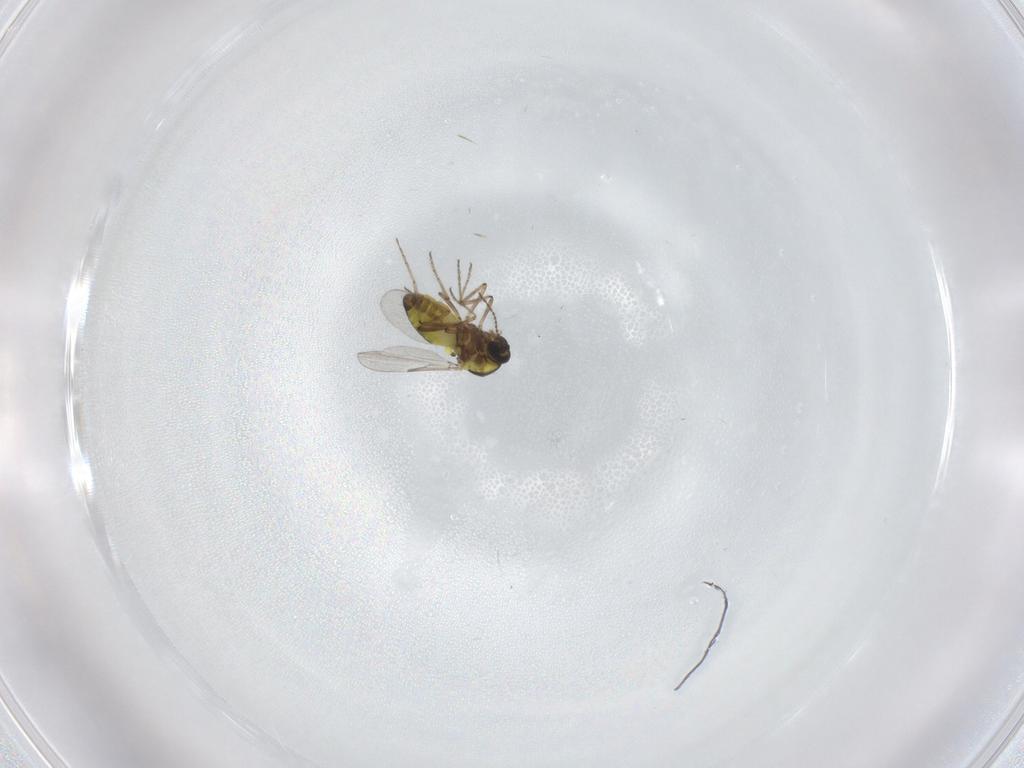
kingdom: Animalia
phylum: Arthropoda
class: Insecta
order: Diptera
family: Ceratopogonidae
